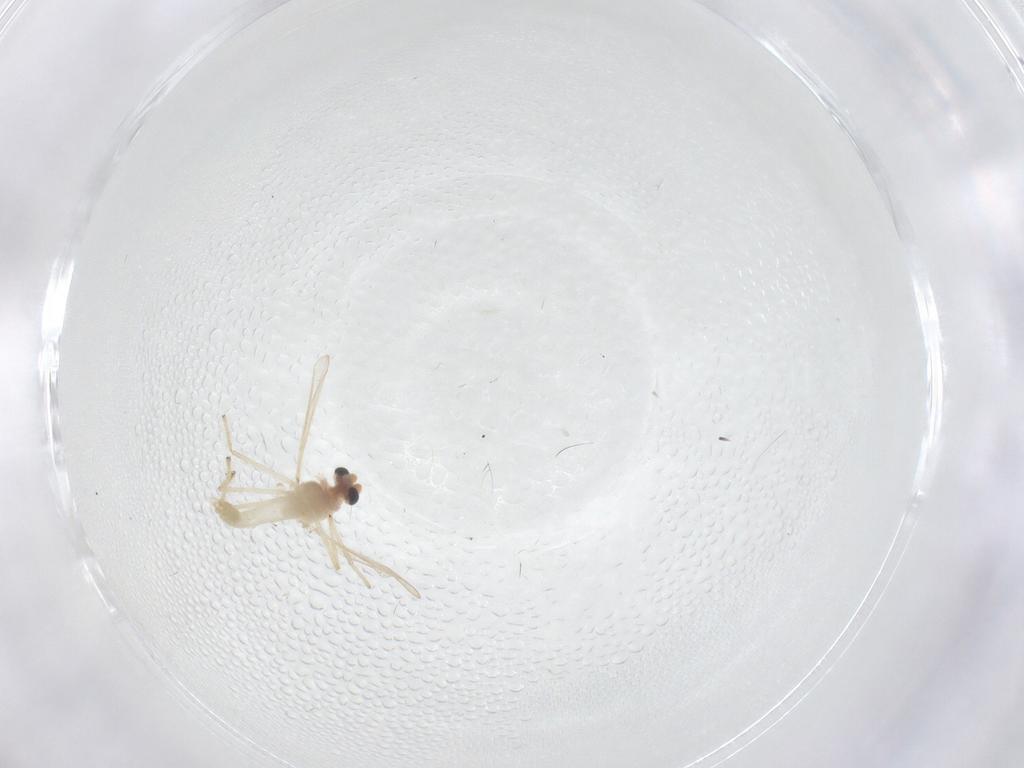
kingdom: Animalia
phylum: Arthropoda
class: Insecta
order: Diptera
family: Chironomidae
